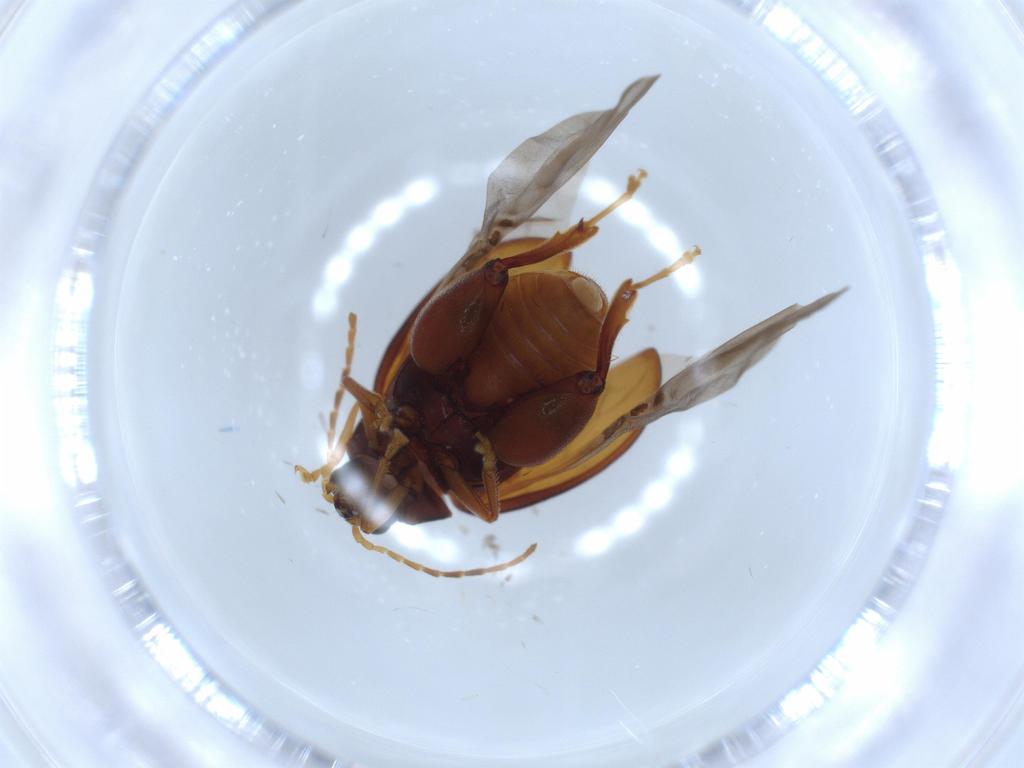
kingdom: Animalia
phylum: Arthropoda
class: Insecta
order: Coleoptera
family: Chrysomelidae
